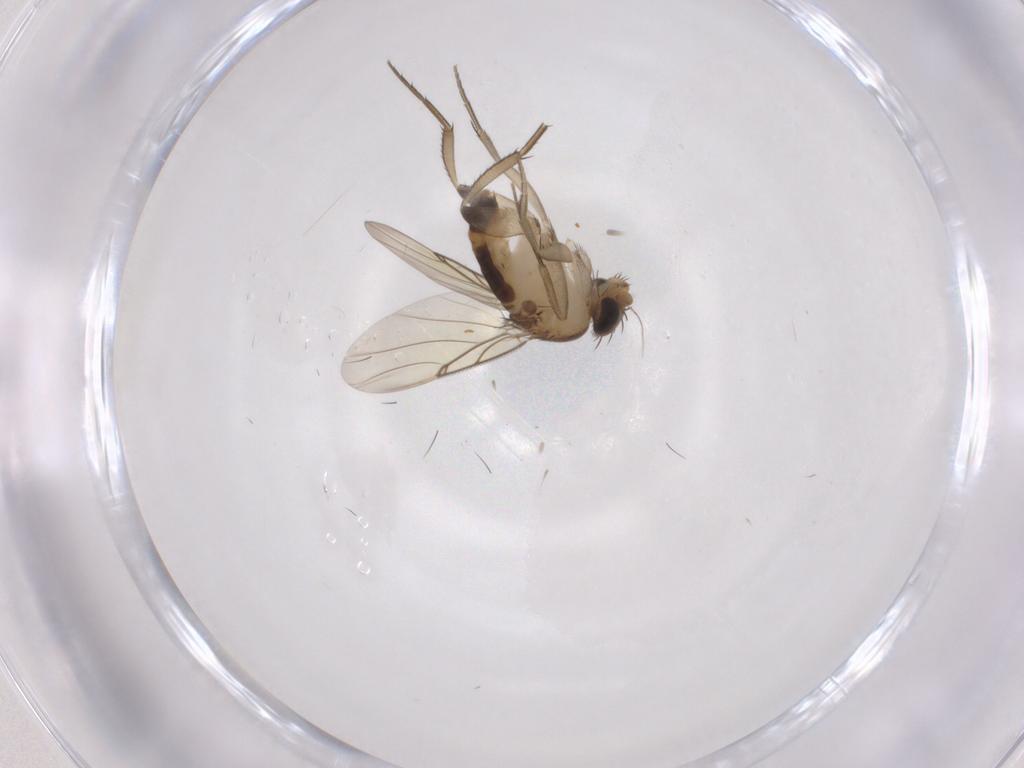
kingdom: Animalia
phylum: Arthropoda
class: Insecta
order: Diptera
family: Phoridae
